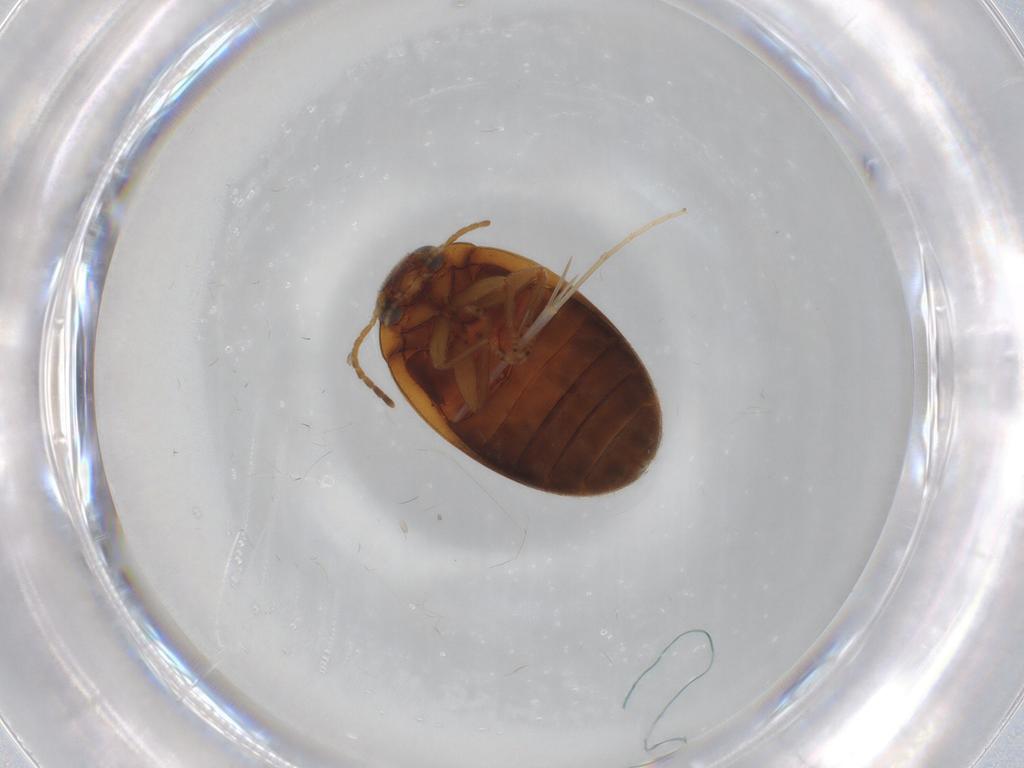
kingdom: Animalia
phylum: Arthropoda
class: Insecta
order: Coleoptera
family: Scirtidae
